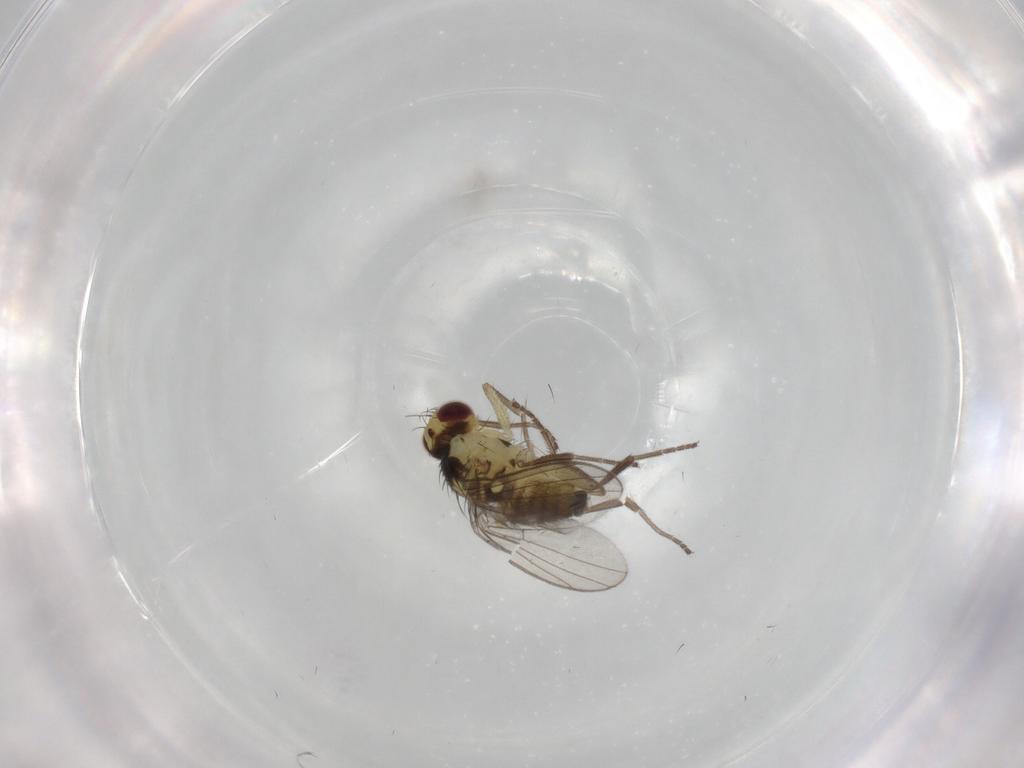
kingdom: Animalia
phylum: Arthropoda
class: Insecta
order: Diptera
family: Agromyzidae
